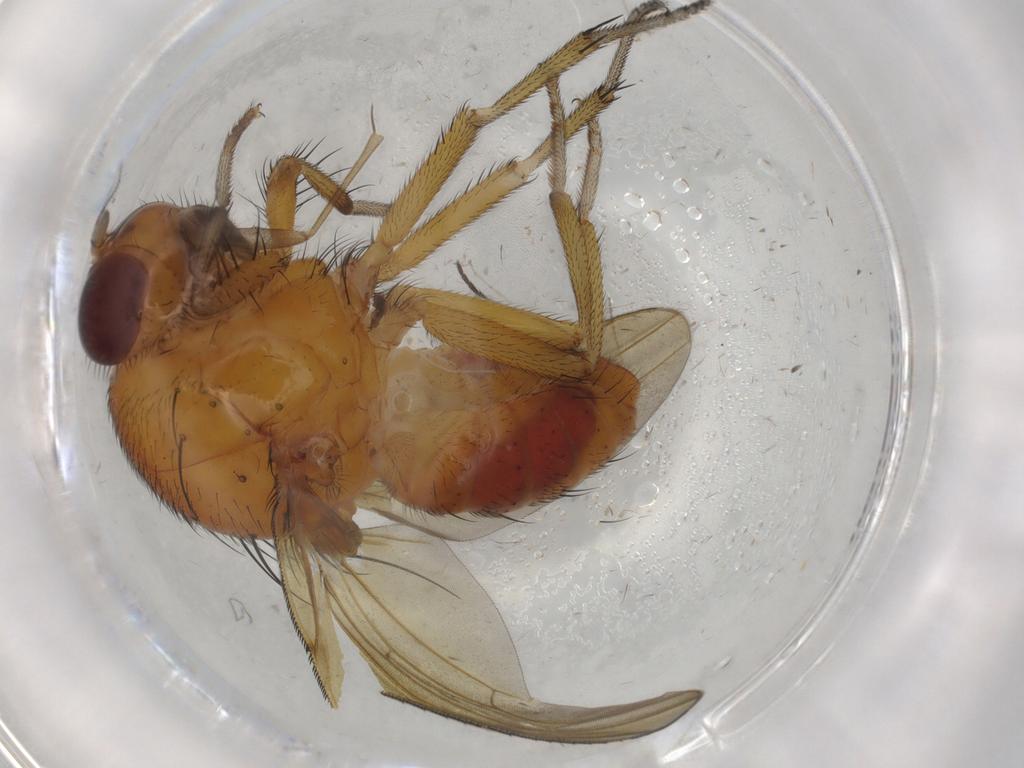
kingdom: Animalia
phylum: Arthropoda
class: Insecta
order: Diptera
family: Mycetophilidae
